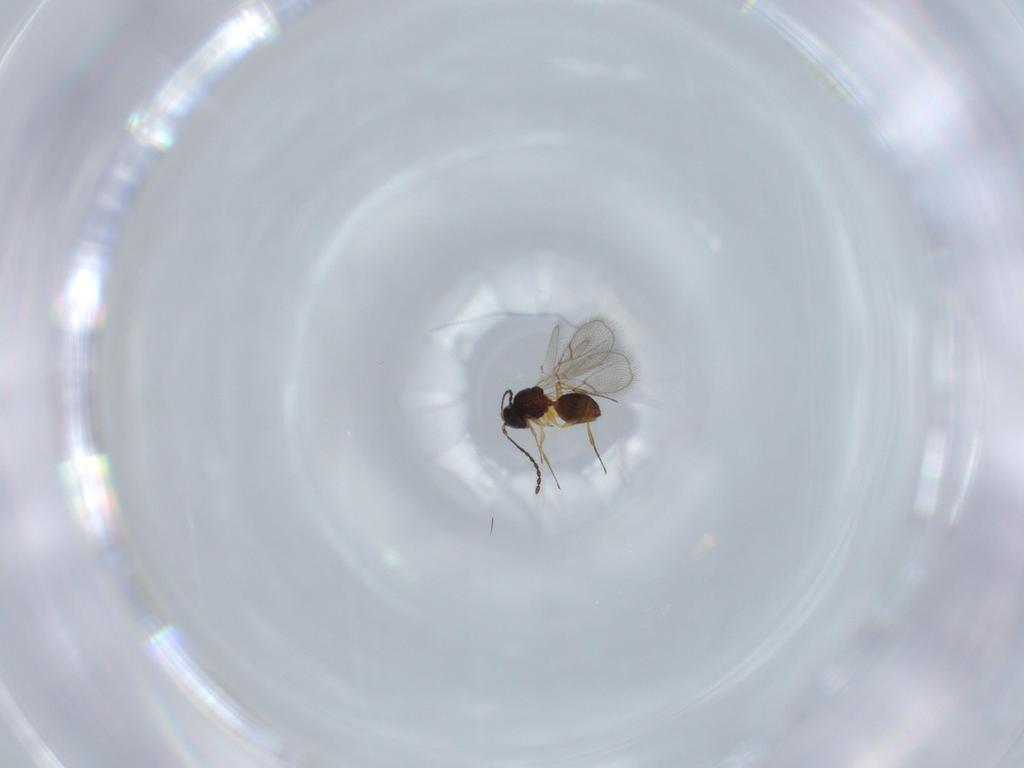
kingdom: Animalia
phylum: Arthropoda
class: Insecta
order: Hymenoptera
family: Figitidae
